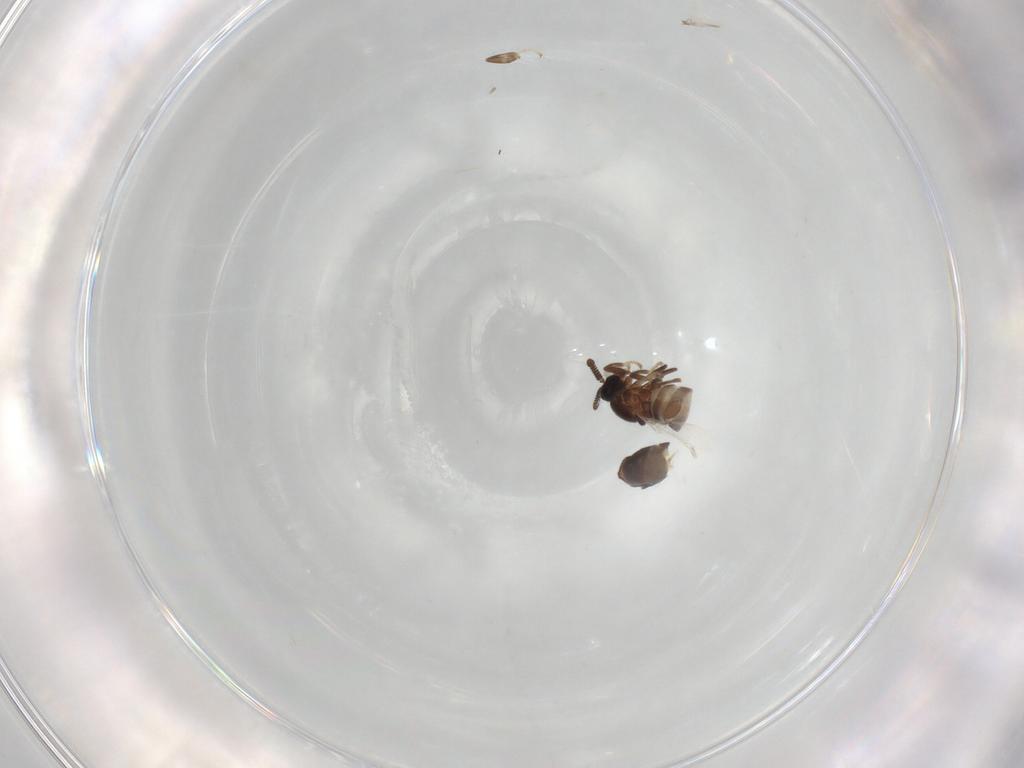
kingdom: Animalia
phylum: Arthropoda
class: Insecta
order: Diptera
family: Scatopsidae
